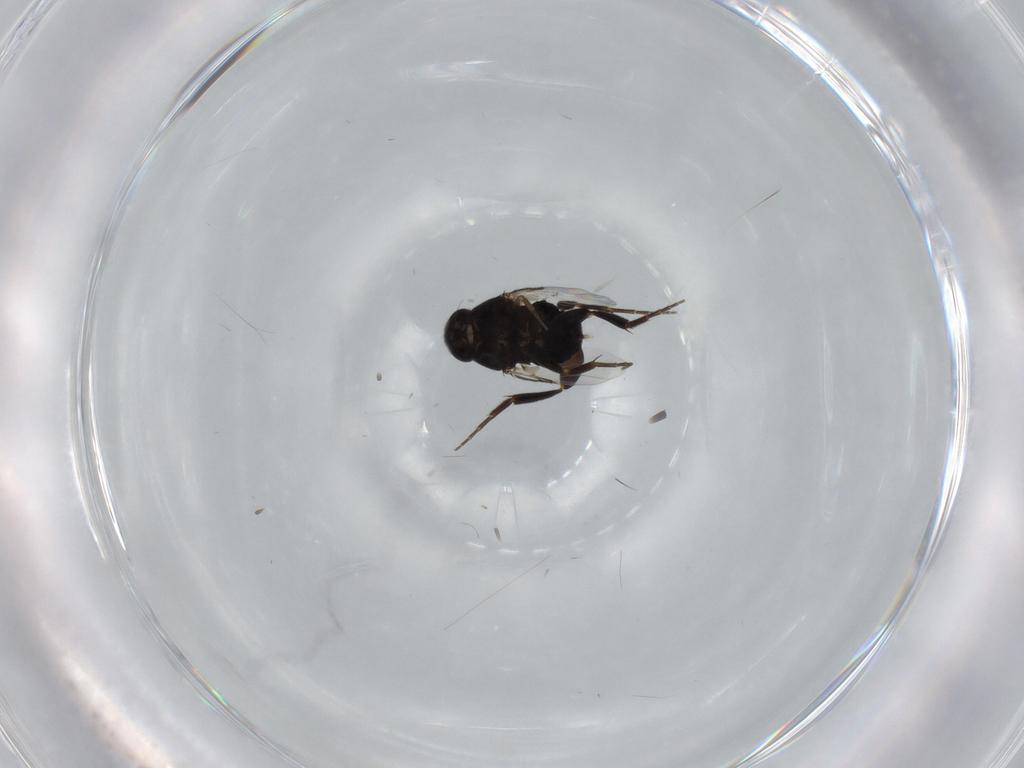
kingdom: Animalia
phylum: Arthropoda
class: Insecta
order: Diptera
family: Phoridae
